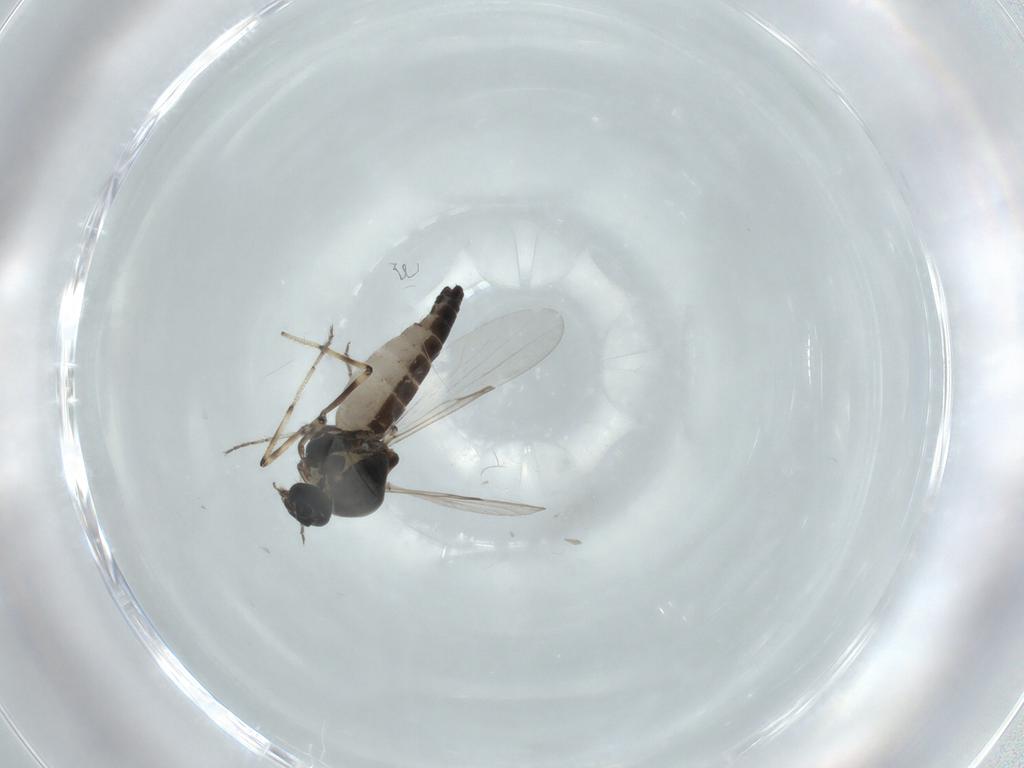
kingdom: Animalia
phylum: Arthropoda
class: Insecta
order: Diptera
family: Ceratopogonidae
